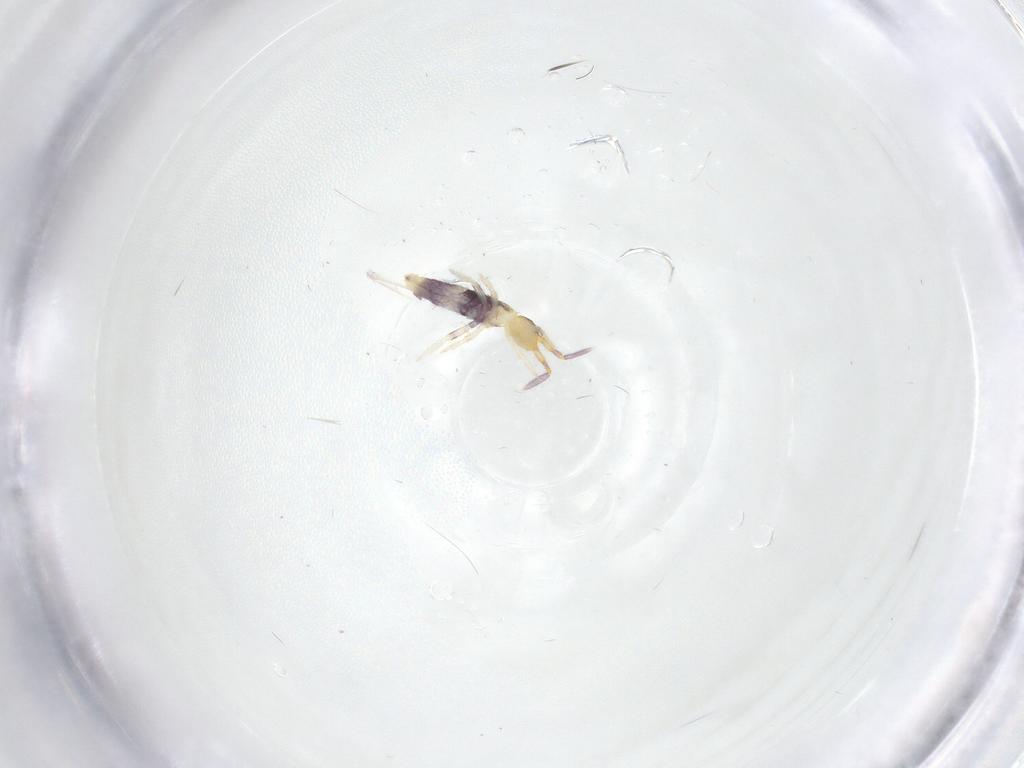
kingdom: Animalia
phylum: Arthropoda
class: Collembola
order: Entomobryomorpha
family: Entomobryidae
